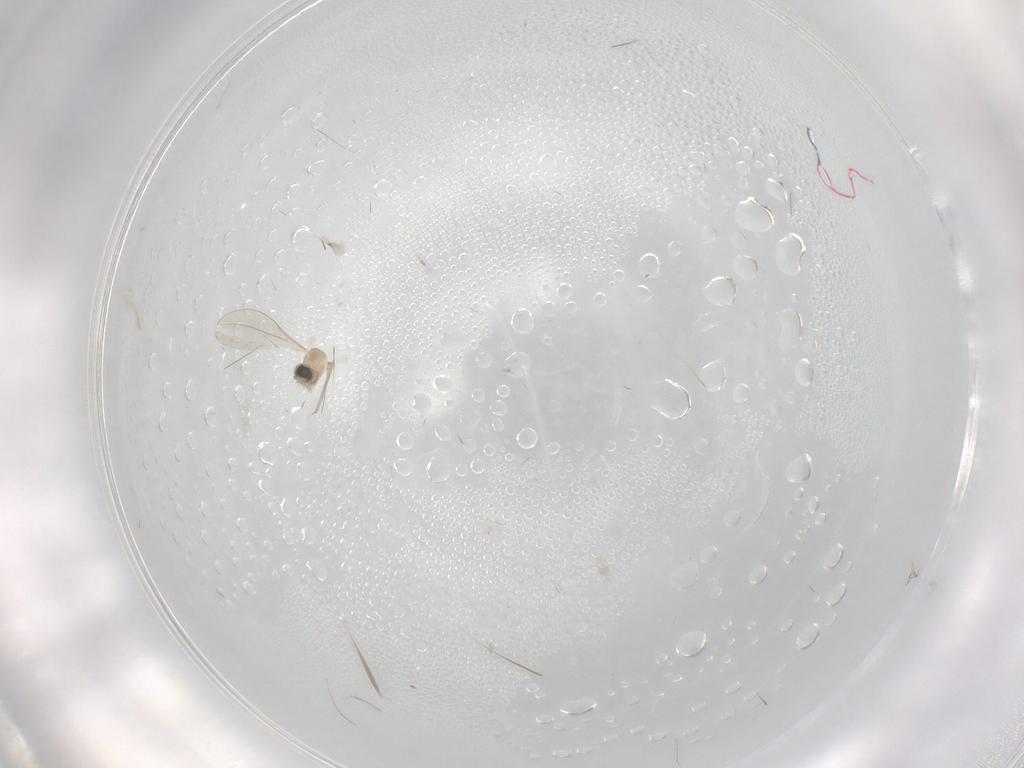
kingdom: Animalia
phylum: Arthropoda
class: Insecta
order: Diptera
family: Cecidomyiidae
